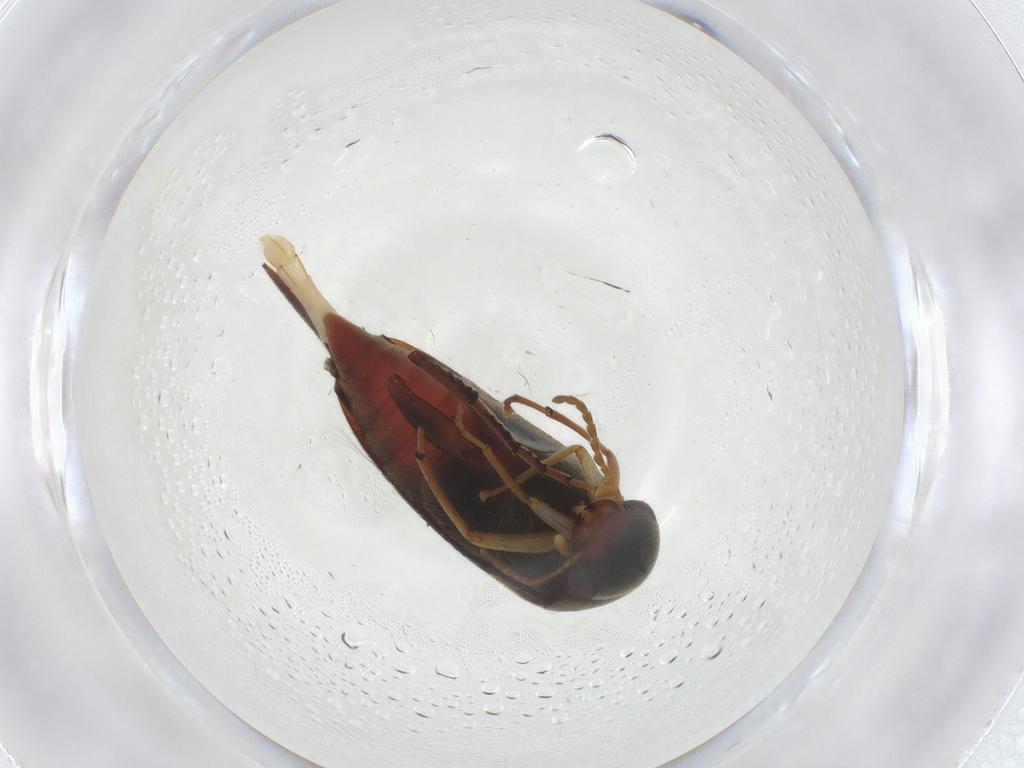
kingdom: Animalia
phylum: Arthropoda
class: Insecta
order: Coleoptera
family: Mordellidae
